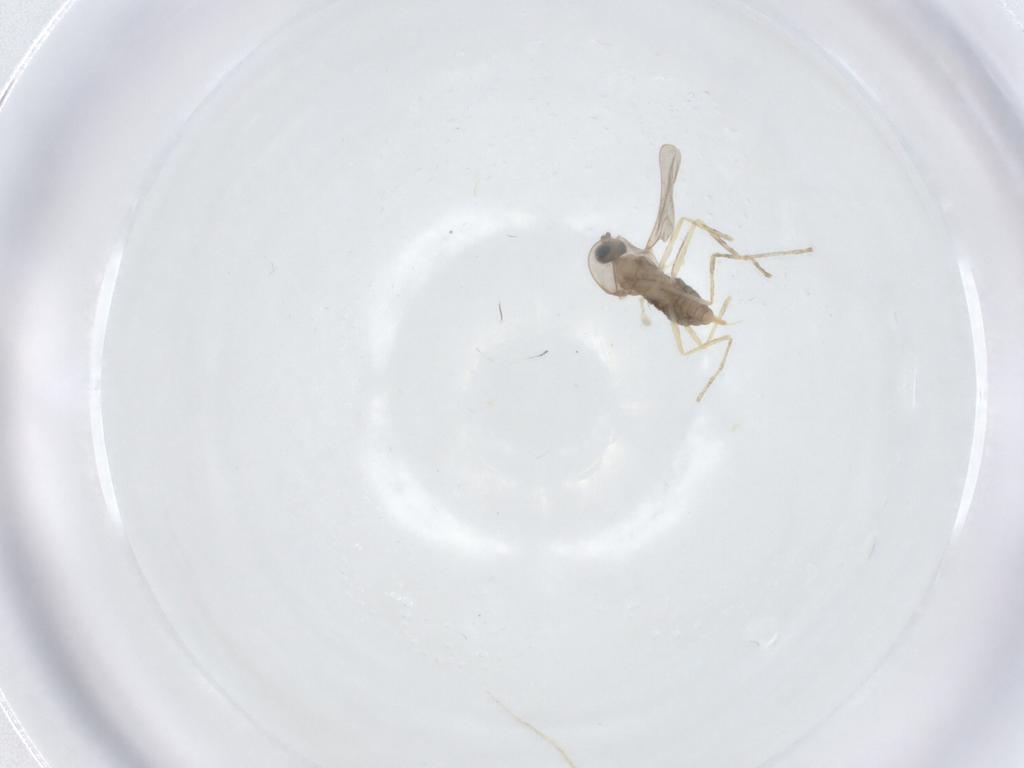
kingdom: Animalia
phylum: Arthropoda
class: Insecta
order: Diptera
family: Cecidomyiidae
